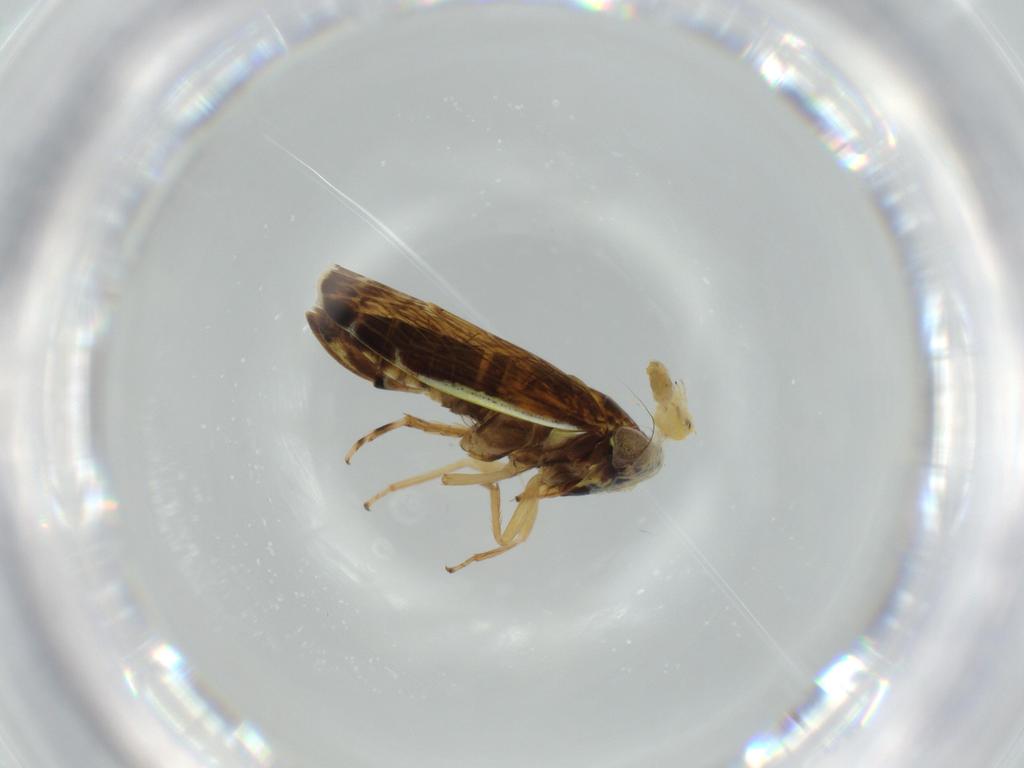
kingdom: Animalia
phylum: Arthropoda
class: Insecta
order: Hemiptera
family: Aleyrodidae
